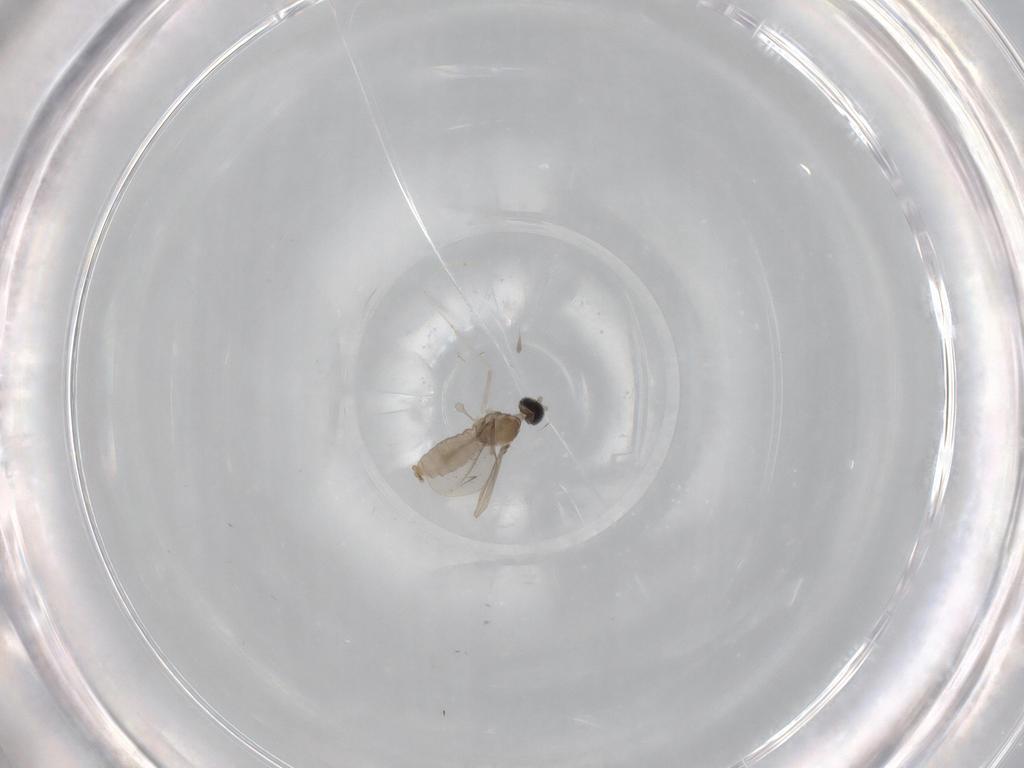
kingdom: Animalia
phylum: Arthropoda
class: Insecta
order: Diptera
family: Cecidomyiidae
